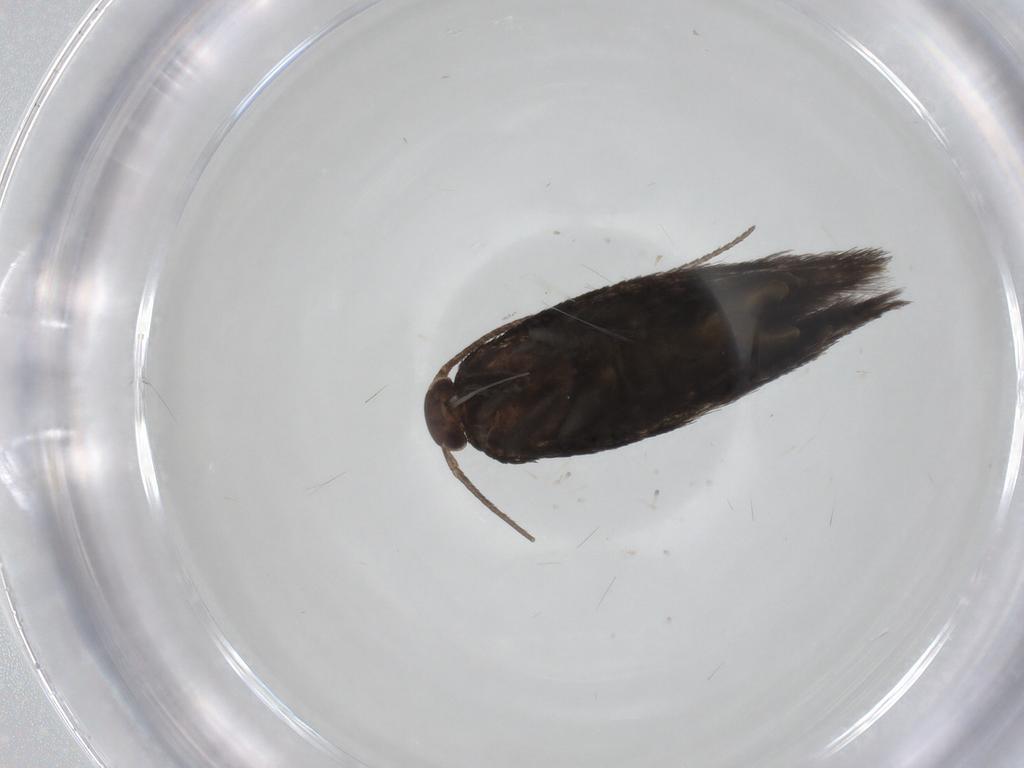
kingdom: Animalia
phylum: Arthropoda
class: Insecta
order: Lepidoptera
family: Elachistidae
